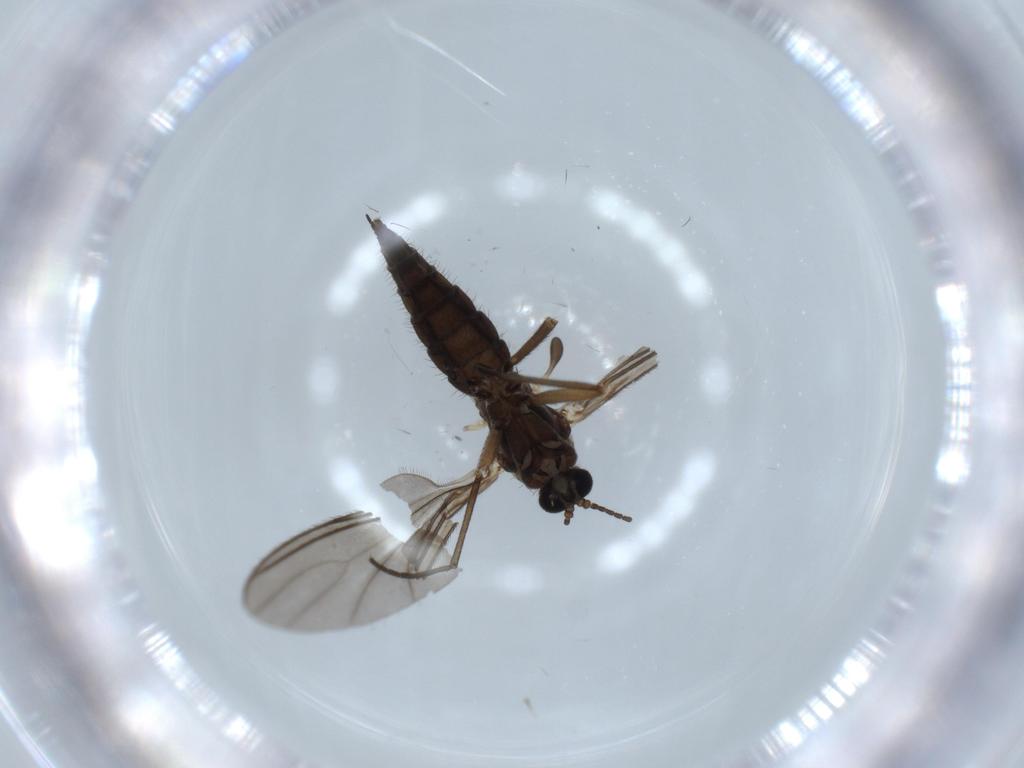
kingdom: Animalia
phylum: Arthropoda
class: Insecta
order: Diptera
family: Sciaridae
